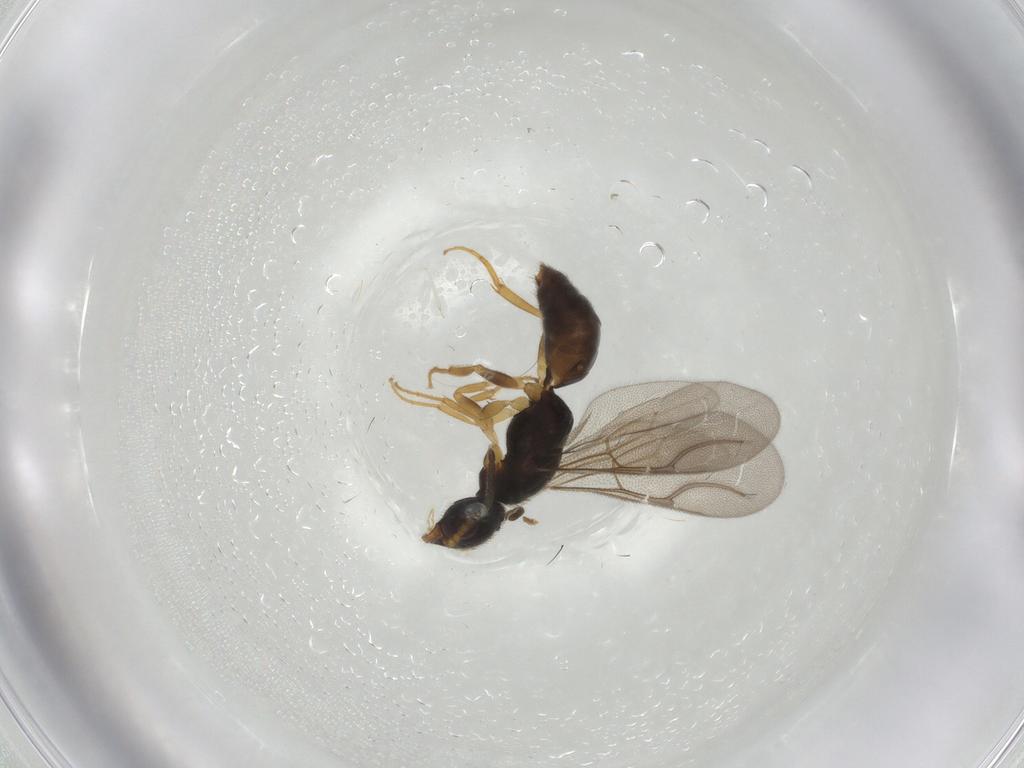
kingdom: Animalia
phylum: Arthropoda
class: Insecta
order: Hymenoptera
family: Bethylidae
